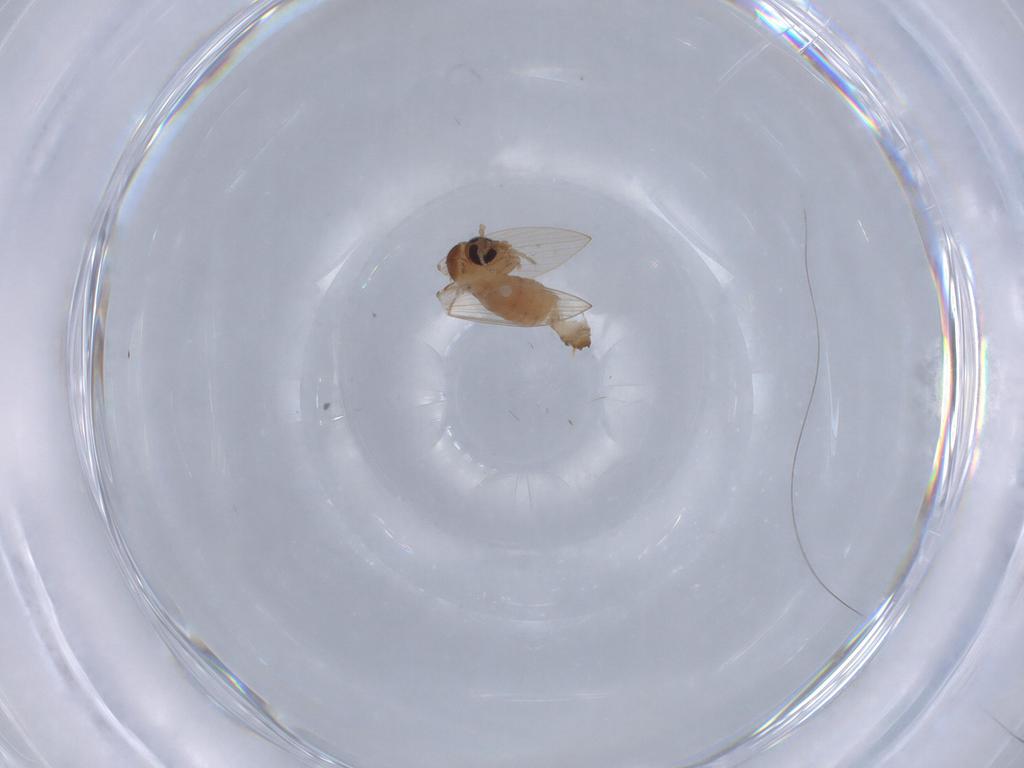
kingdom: Animalia
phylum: Arthropoda
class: Insecta
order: Diptera
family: Psychodidae
